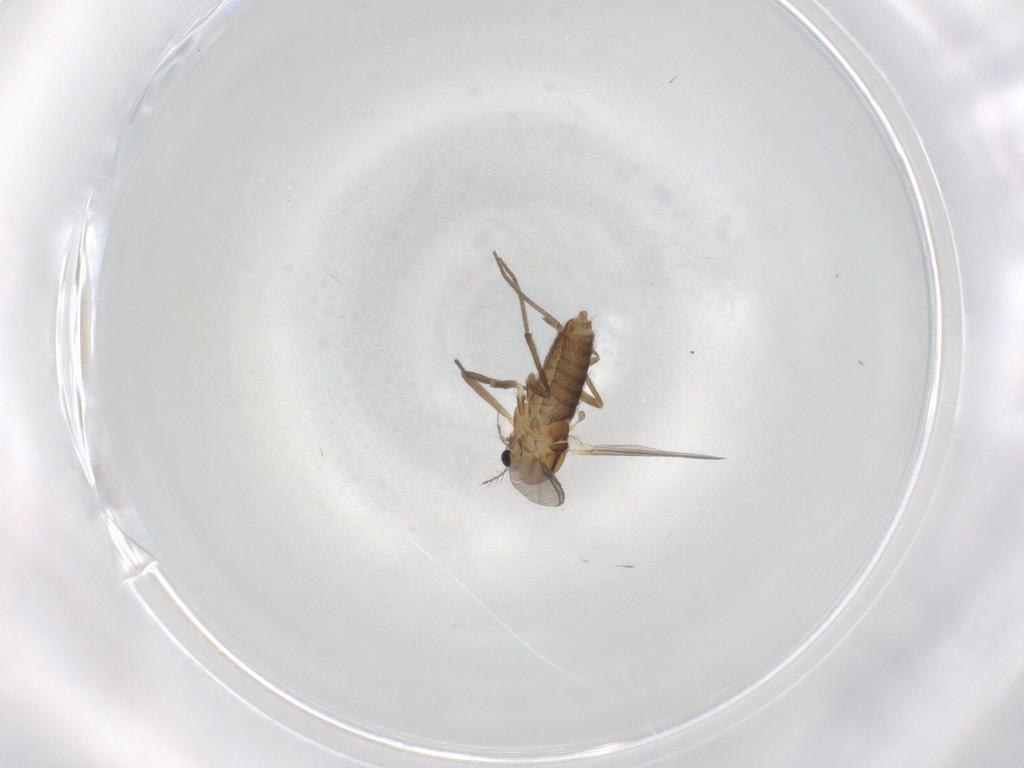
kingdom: Animalia
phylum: Arthropoda
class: Insecta
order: Diptera
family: Chironomidae
